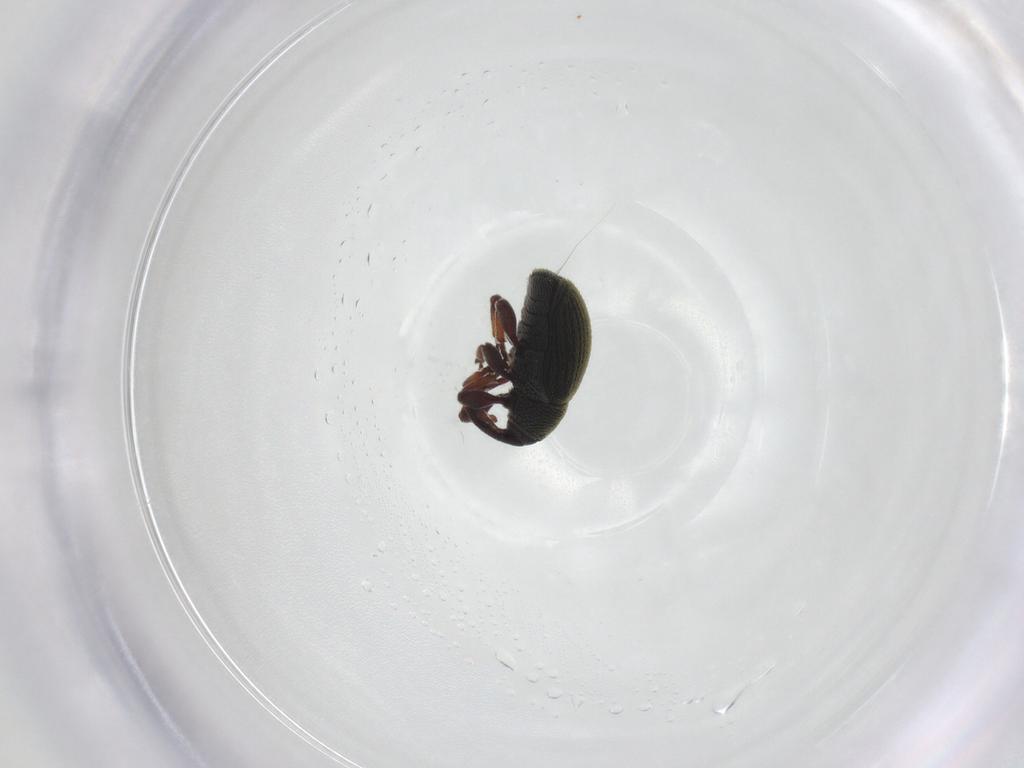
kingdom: Animalia
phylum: Arthropoda
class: Insecta
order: Coleoptera
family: Curculionidae
